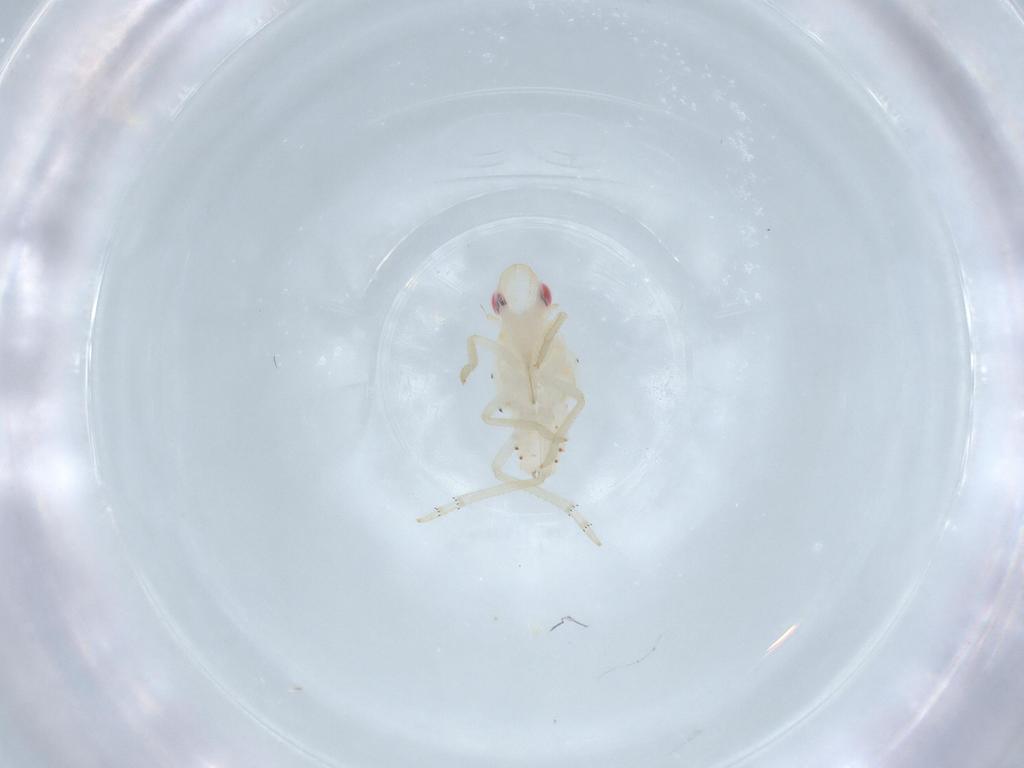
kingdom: Animalia
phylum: Arthropoda
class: Insecta
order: Hemiptera
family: Tropiduchidae
